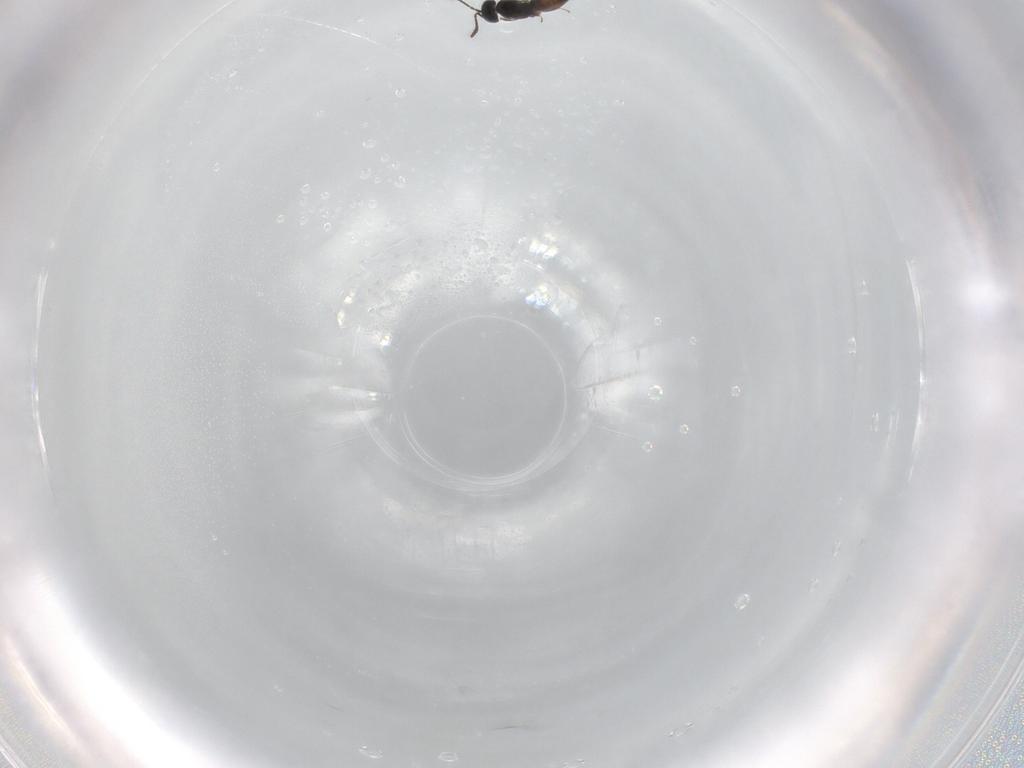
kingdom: Animalia
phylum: Arthropoda
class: Insecta
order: Hymenoptera
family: Scelionidae
